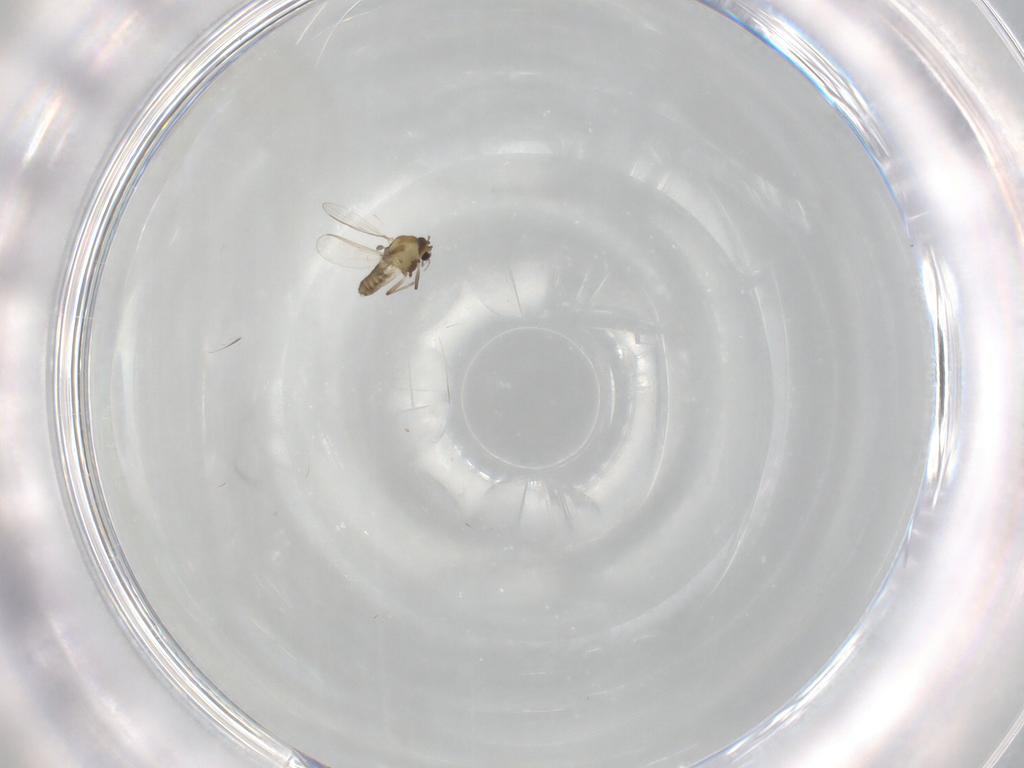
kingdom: Animalia
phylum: Arthropoda
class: Insecta
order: Diptera
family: Chironomidae
